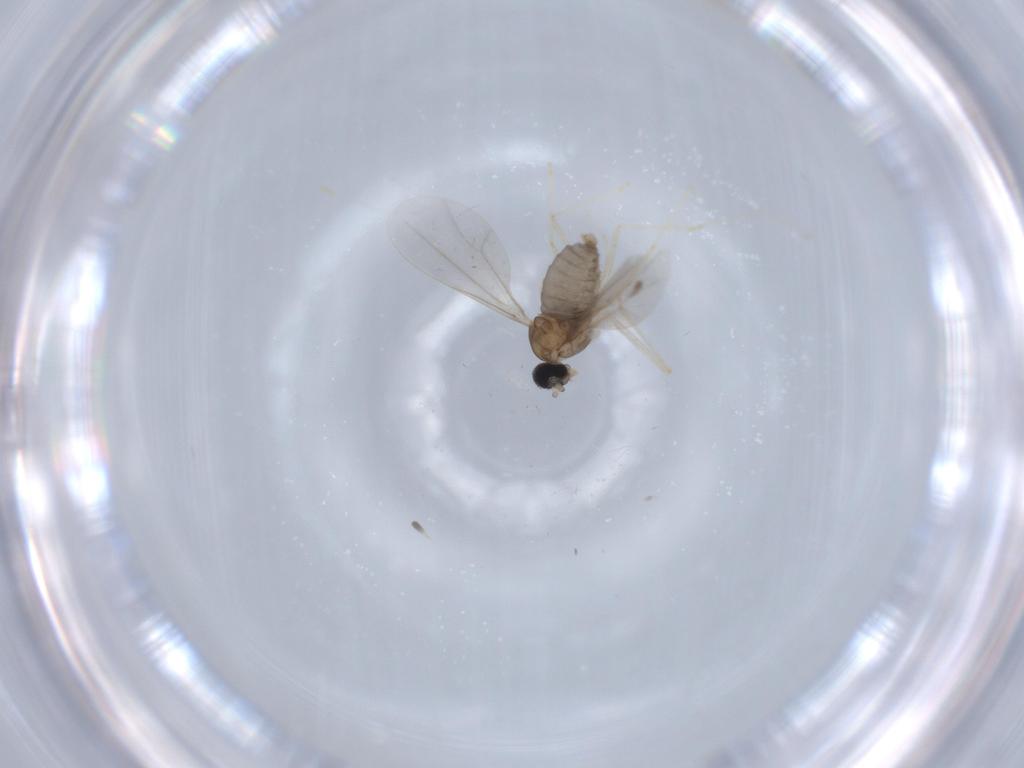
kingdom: Animalia
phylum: Arthropoda
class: Insecta
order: Diptera
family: Cecidomyiidae
